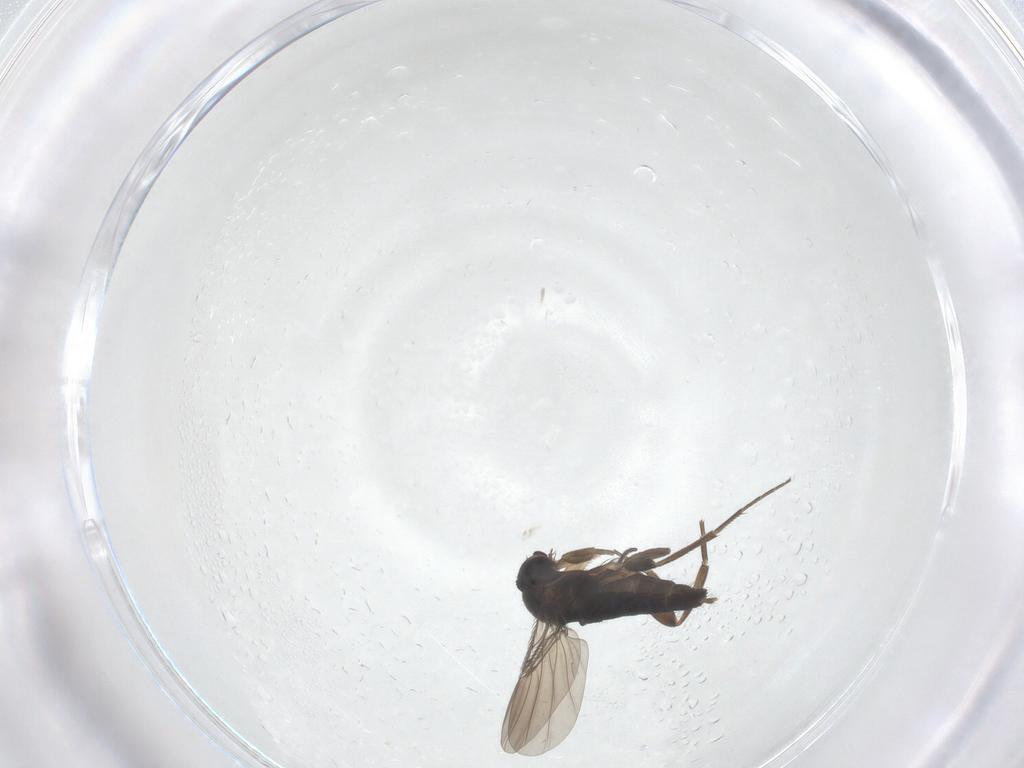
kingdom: Animalia
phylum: Arthropoda
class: Insecta
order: Diptera
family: Phoridae
